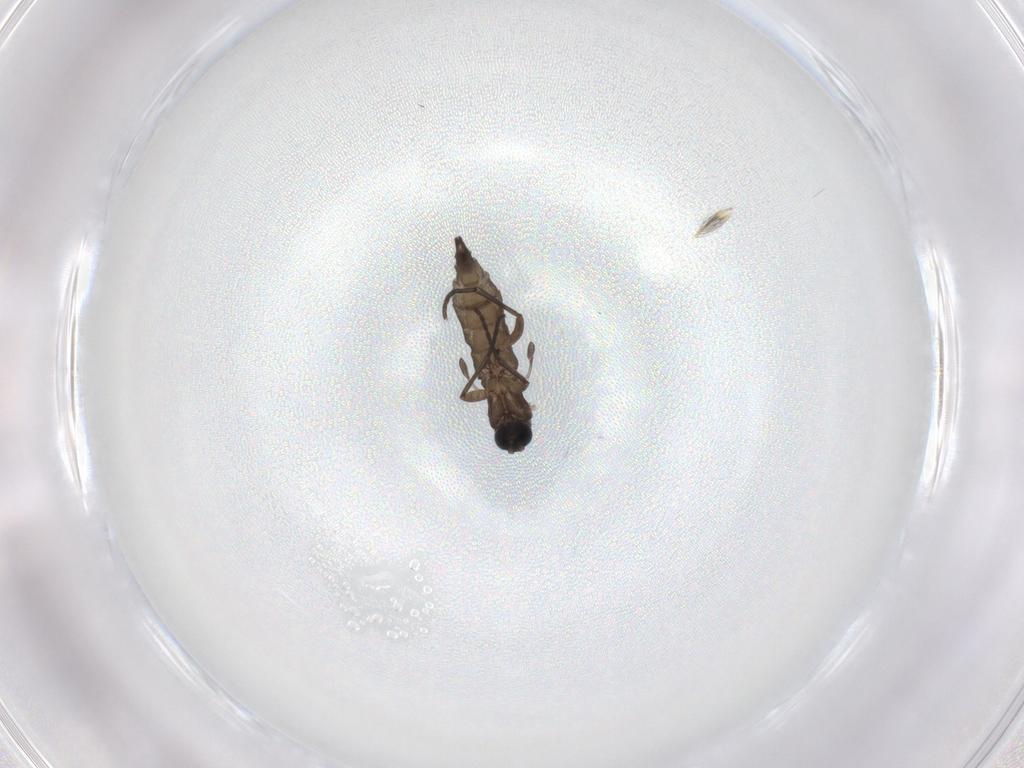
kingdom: Animalia
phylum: Arthropoda
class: Insecta
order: Diptera
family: Sciaridae
